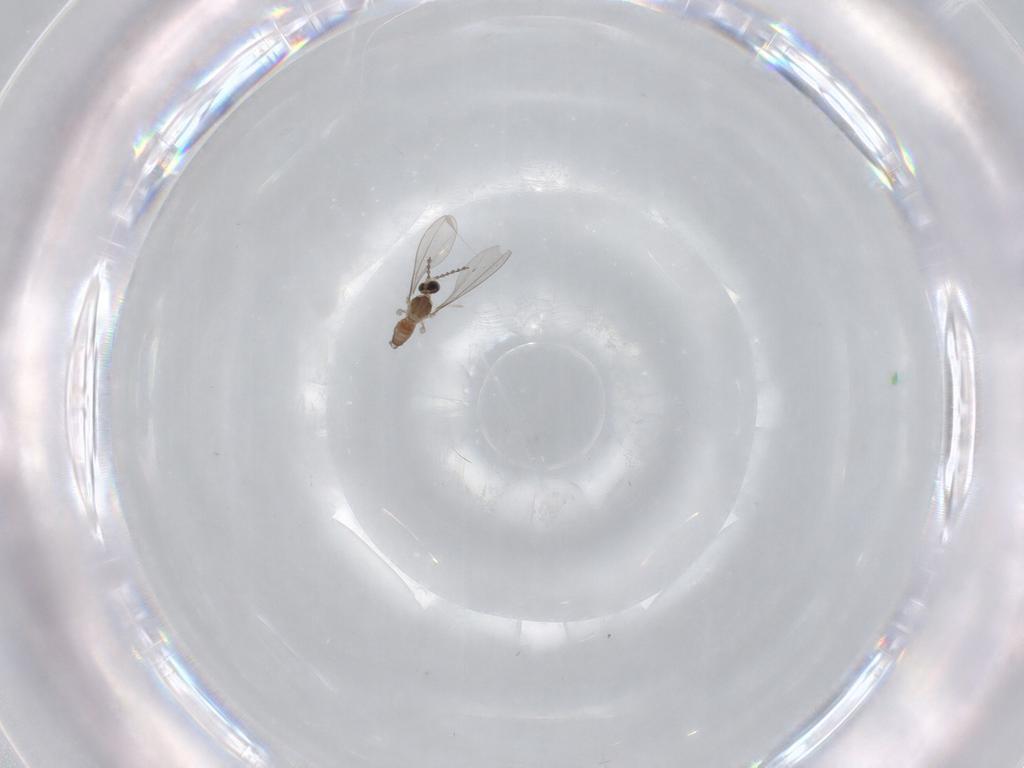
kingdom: Animalia
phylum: Arthropoda
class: Insecta
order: Diptera
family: Cecidomyiidae
